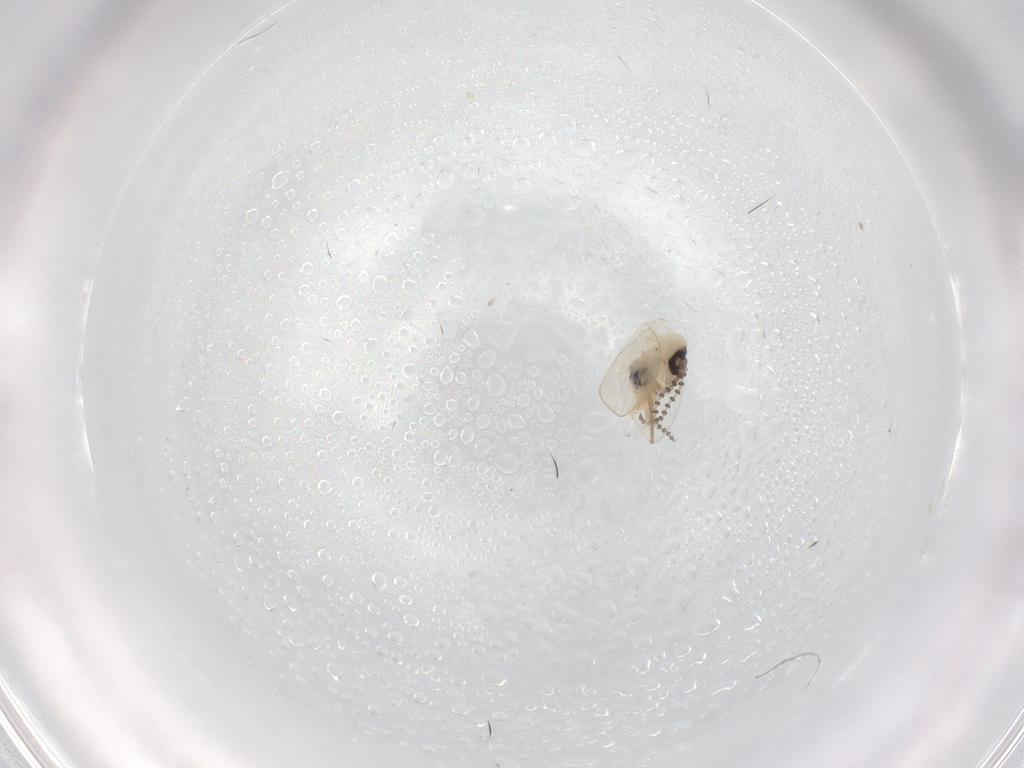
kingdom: Animalia
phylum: Arthropoda
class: Insecta
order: Diptera
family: Psychodidae
